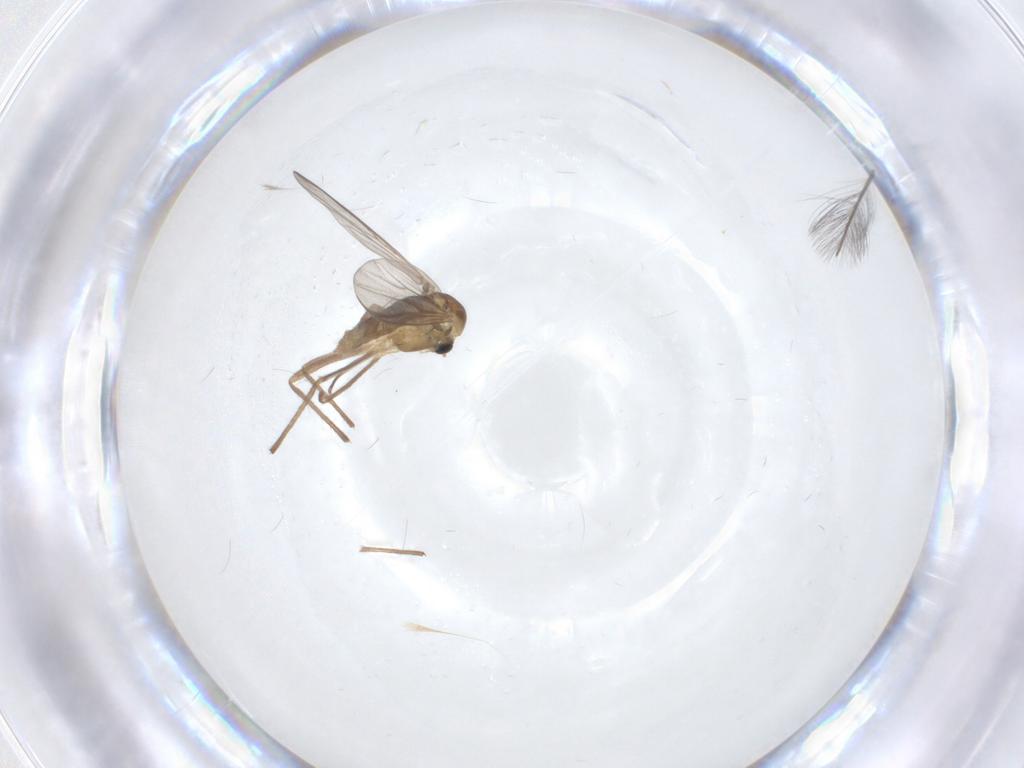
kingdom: Animalia
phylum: Arthropoda
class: Insecta
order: Diptera
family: Chironomidae
